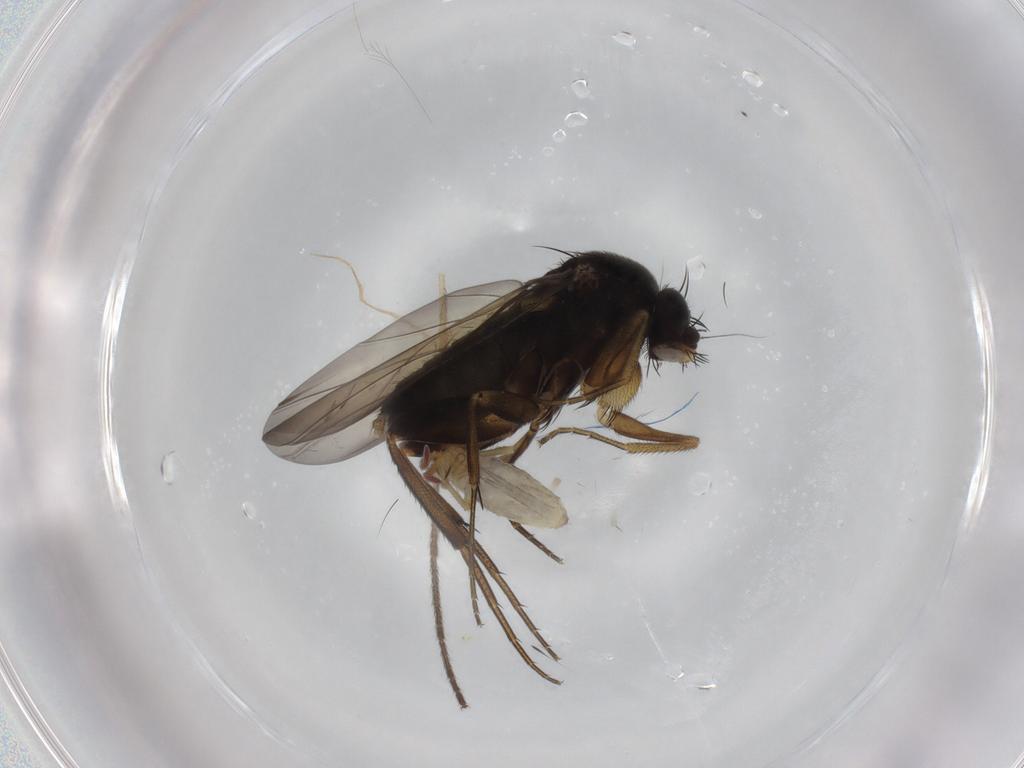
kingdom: Animalia
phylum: Arthropoda
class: Insecta
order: Diptera
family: Phoridae
